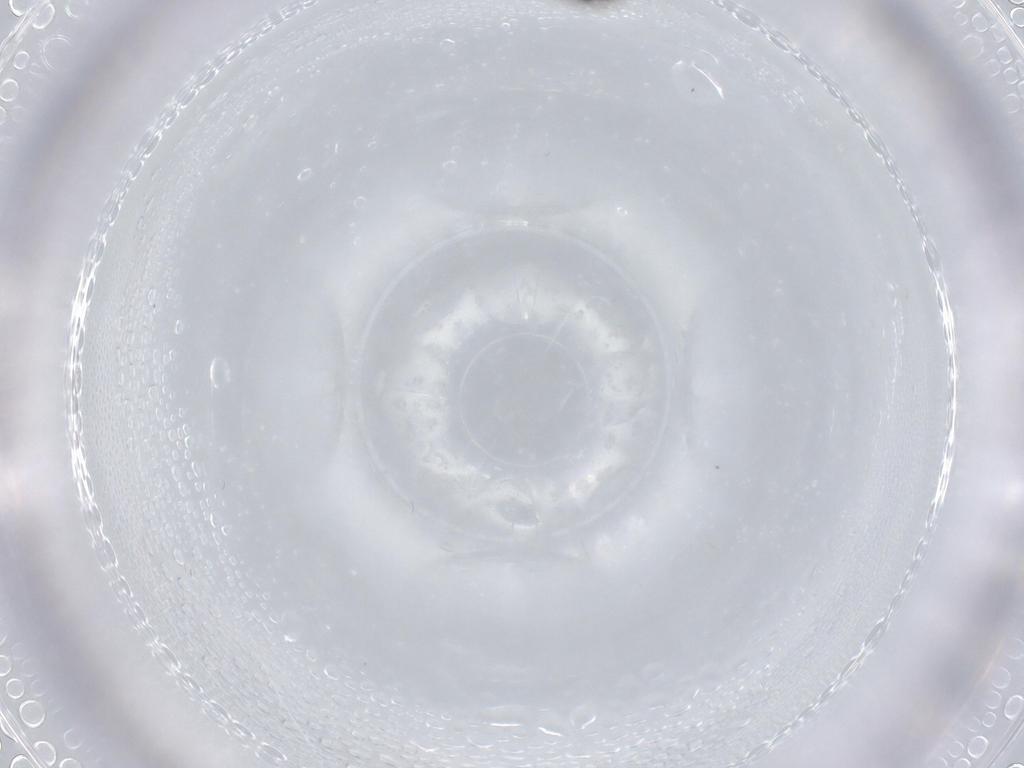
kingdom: Animalia
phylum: Arthropoda
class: Insecta
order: Diptera
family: Scatopsidae
